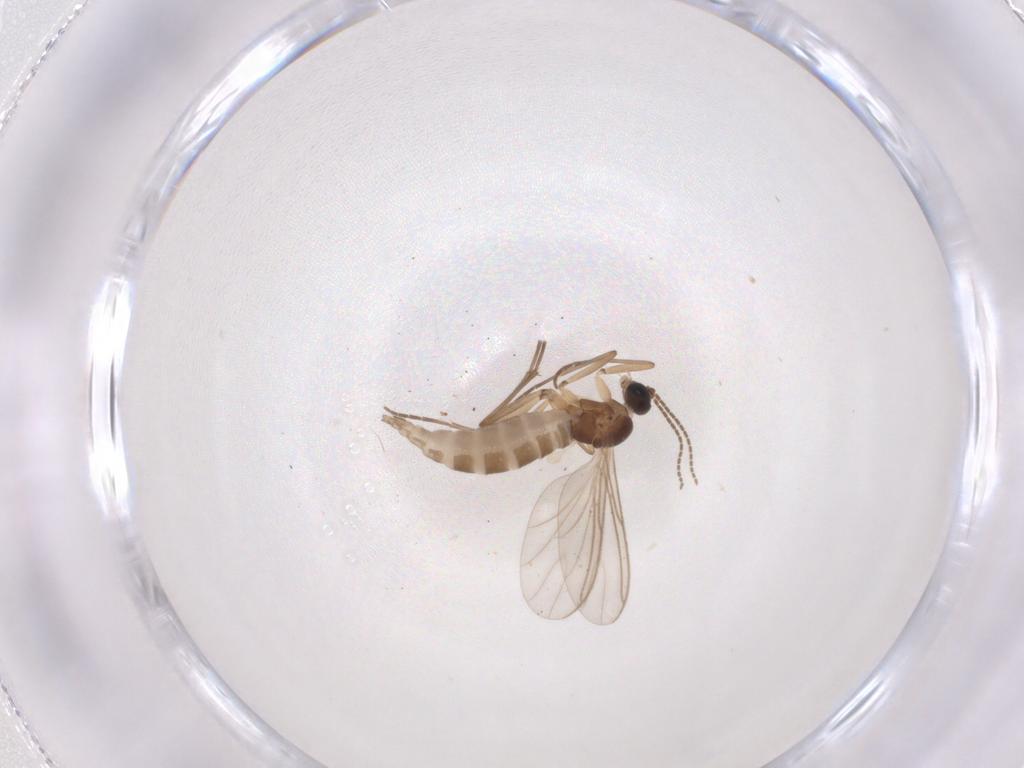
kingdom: Animalia
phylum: Arthropoda
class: Insecta
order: Diptera
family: Sciaridae
